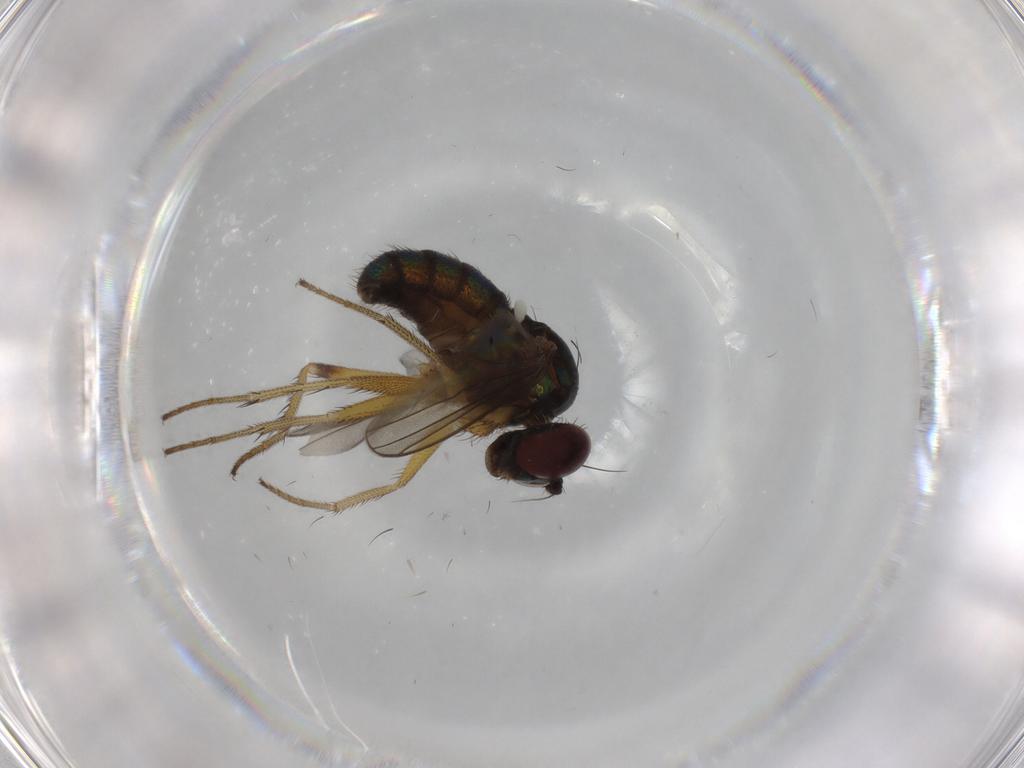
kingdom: Animalia
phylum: Arthropoda
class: Insecta
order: Diptera
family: Dolichopodidae
